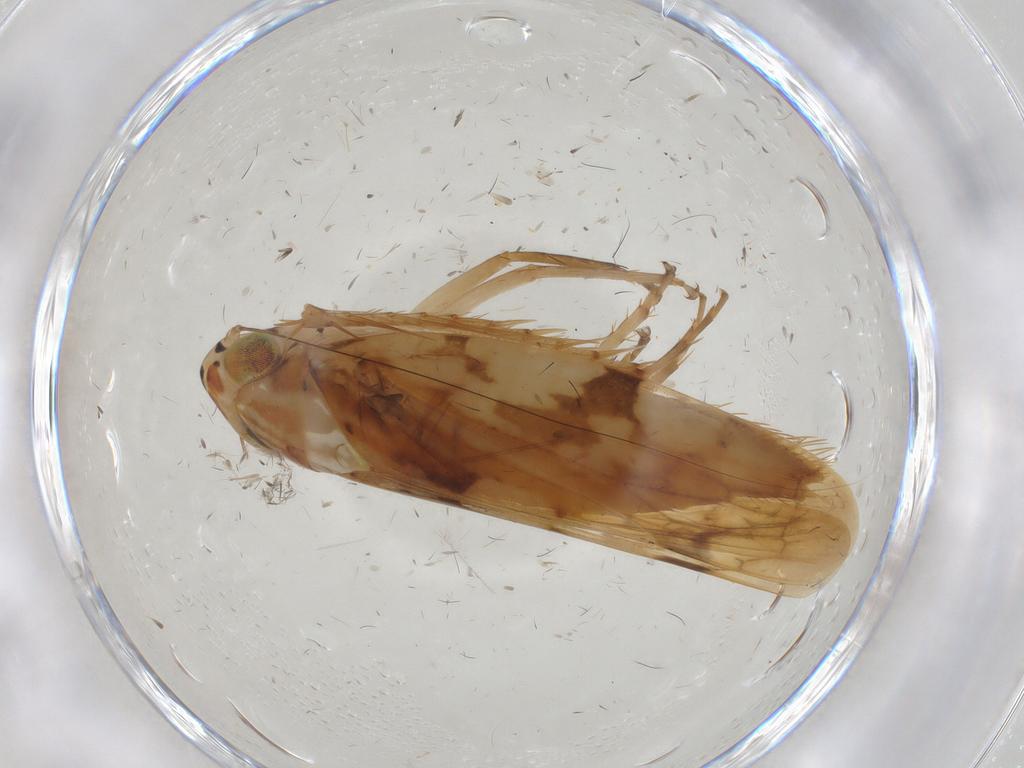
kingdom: Animalia
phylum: Arthropoda
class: Insecta
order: Hemiptera
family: Cicadellidae
